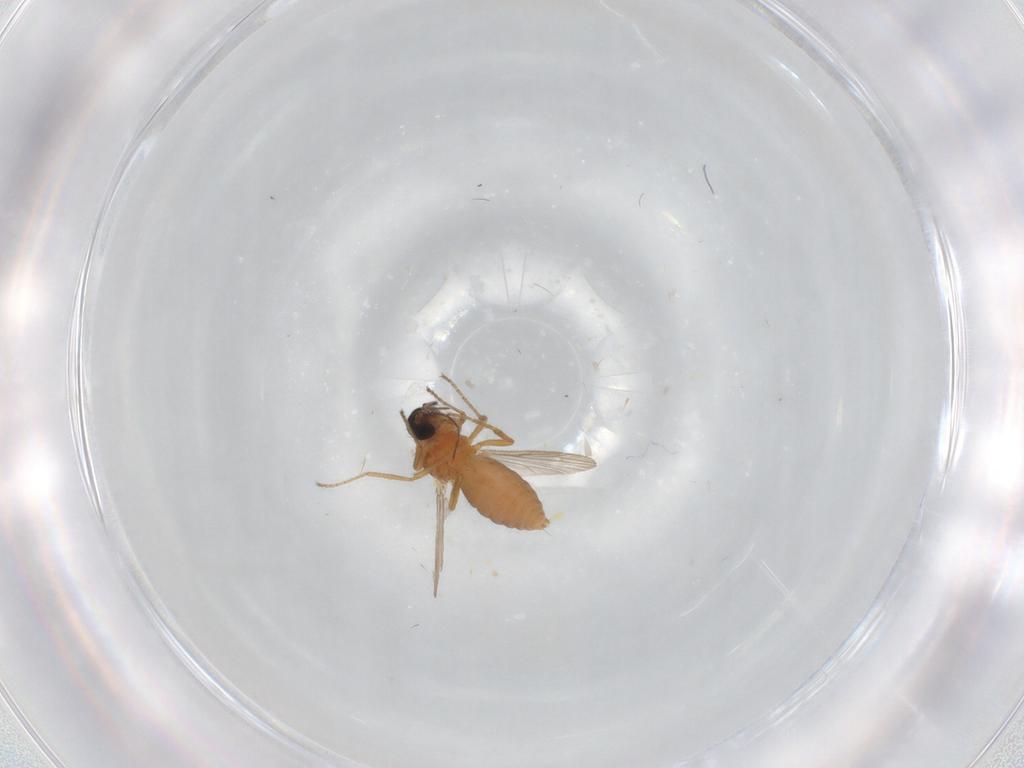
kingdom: Animalia
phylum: Arthropoda
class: Insecta
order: Diptera
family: Ceratopogonidae
